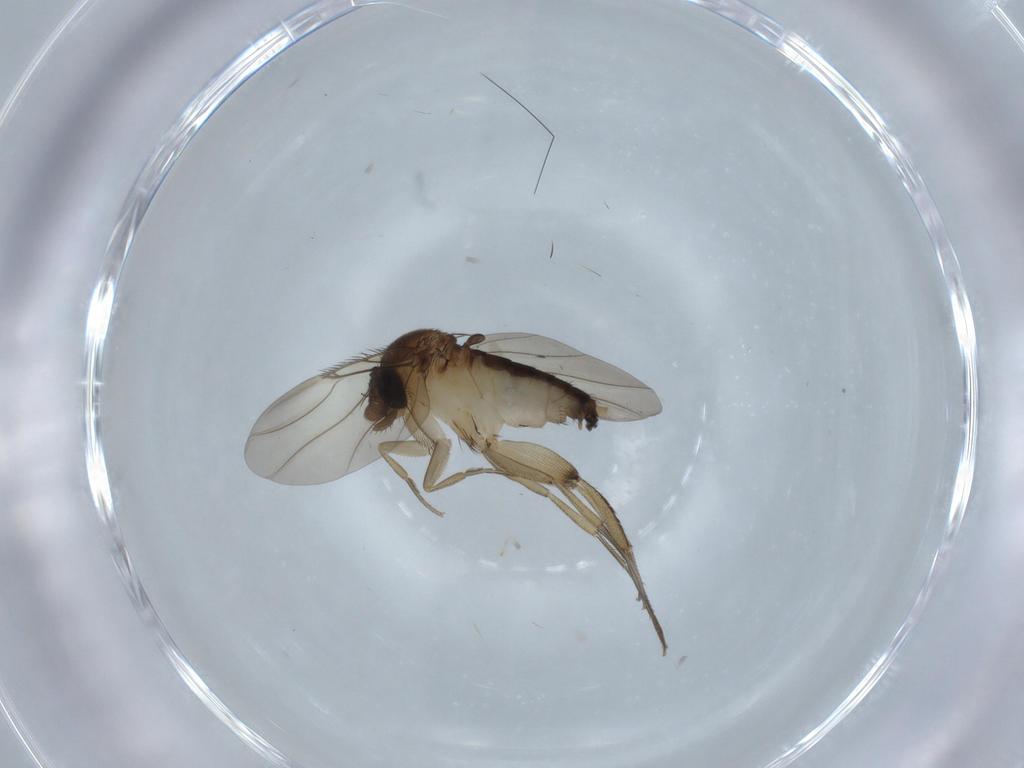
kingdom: Animalia
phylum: Arthropoda
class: Insecta
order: Diptera
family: Phoridae
